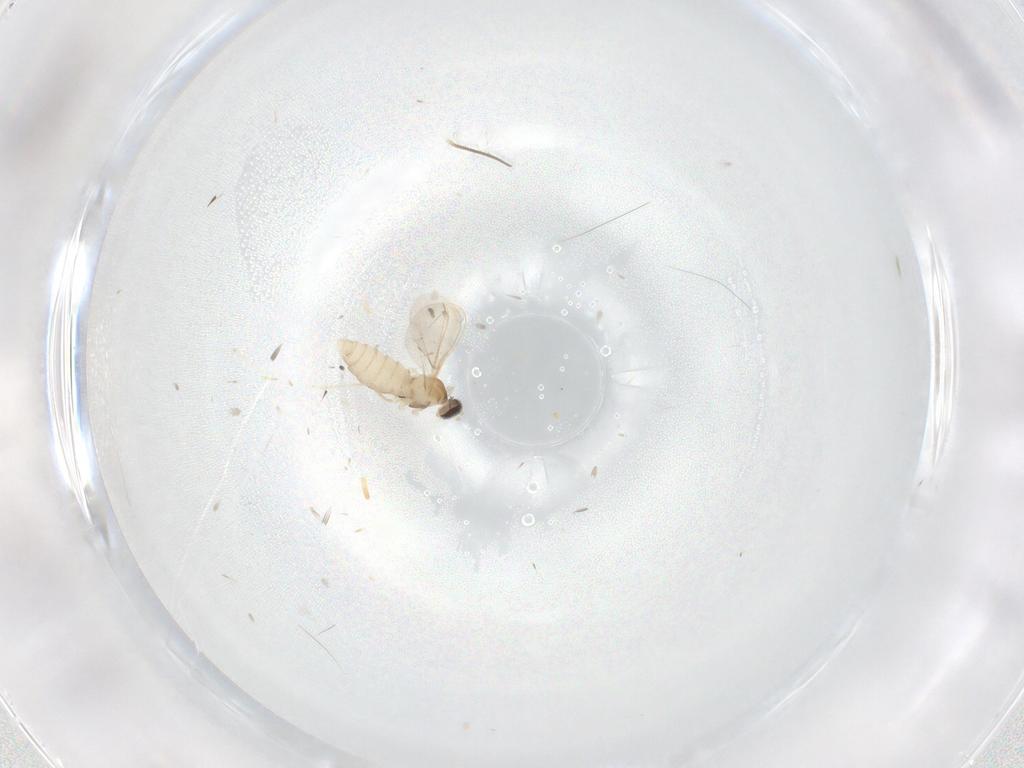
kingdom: Animalia
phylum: Arthropoda
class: Insecta
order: Diptera
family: Cecidomyiidae
